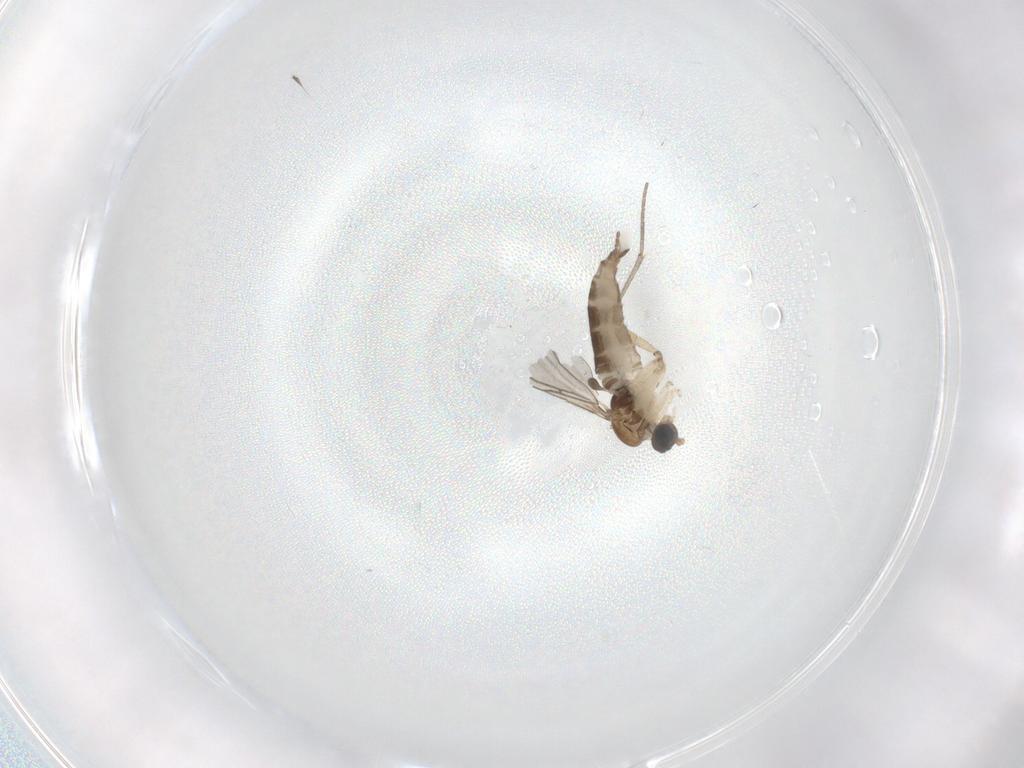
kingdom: Animalia
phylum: Arthropoda
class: Insecta
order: Diptera
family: Sciaridae
